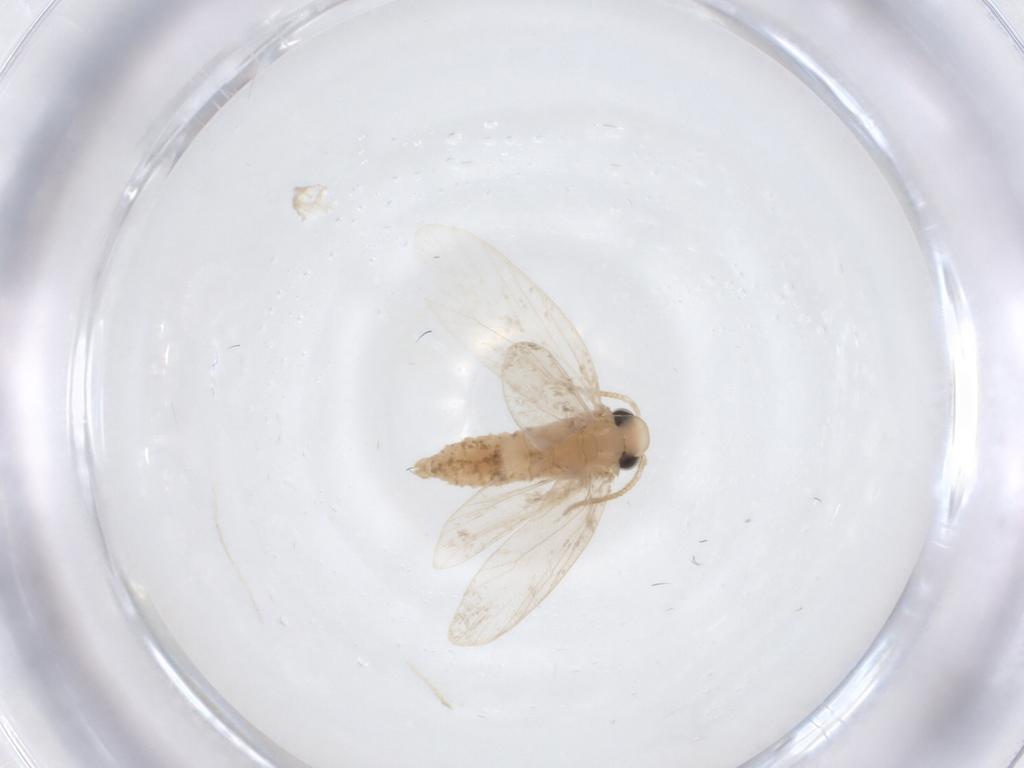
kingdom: Animalia
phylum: Arthropoda
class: Insecta
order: Lepidoptera
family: Psychidae
